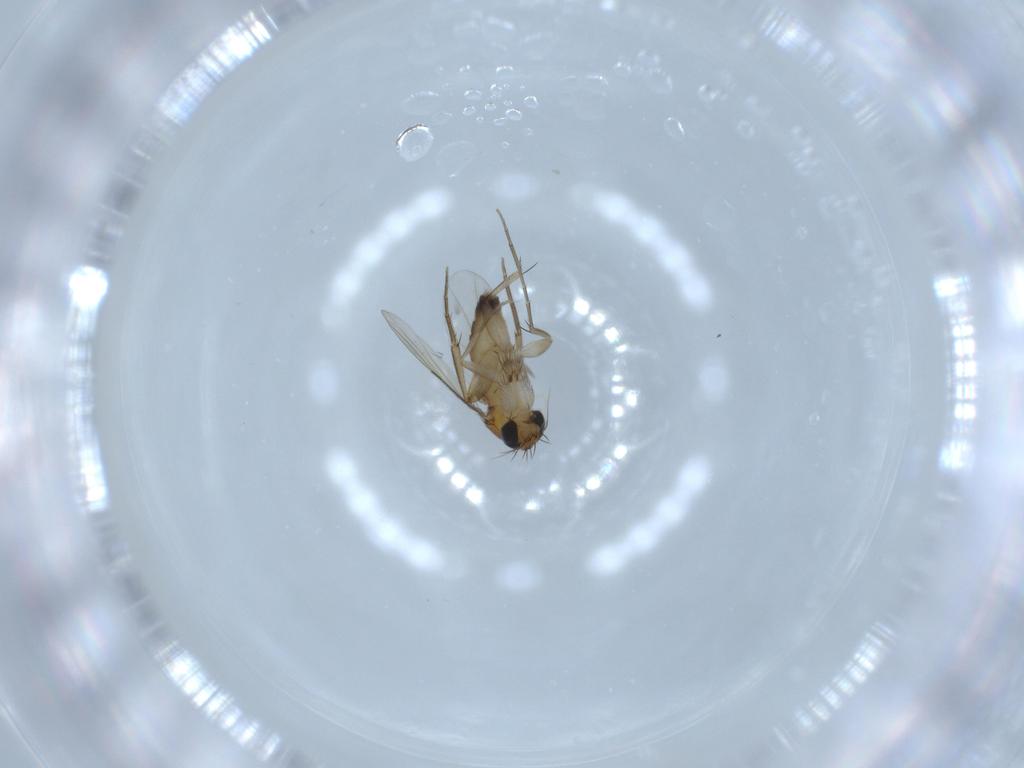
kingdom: Animalia
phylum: Arthropoda
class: Insecta
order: Diptera
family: Phoridae
